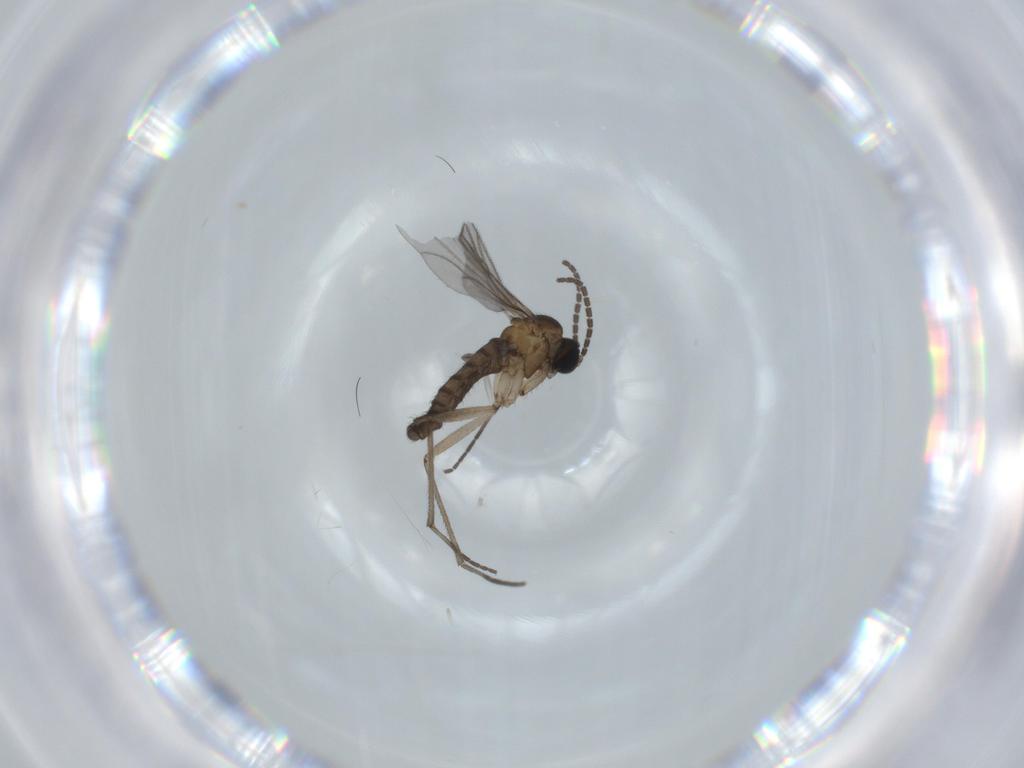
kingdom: Animalia
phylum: Arthropoda
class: Insecta
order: Diptera
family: Sciaridae
